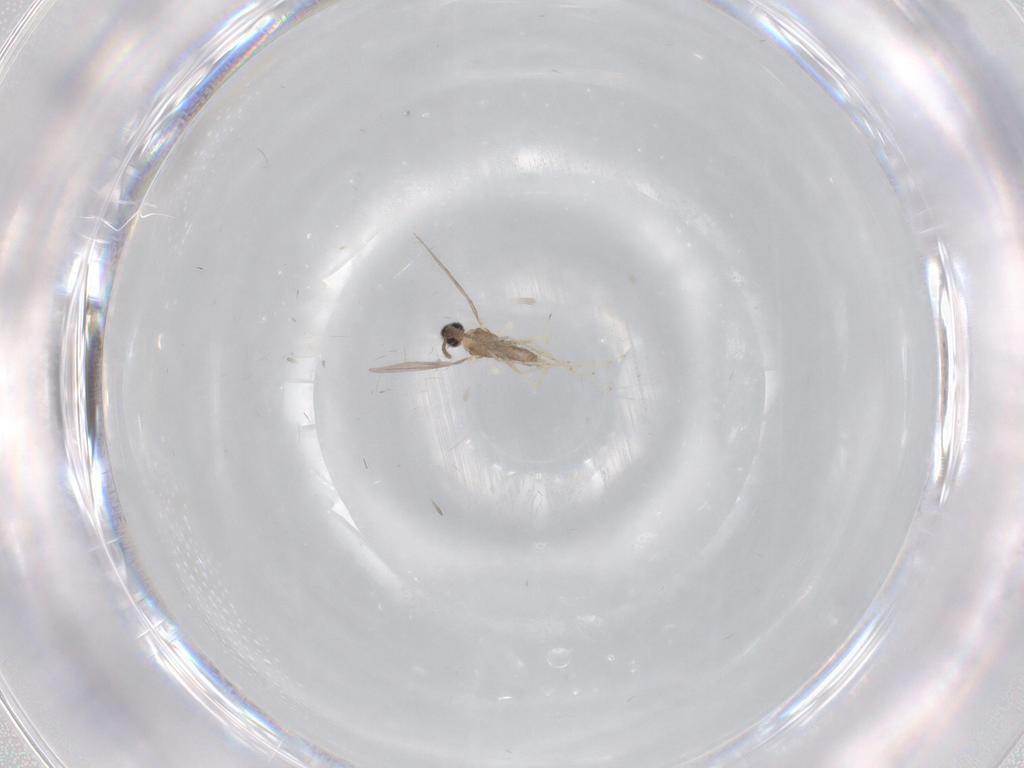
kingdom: Animalia
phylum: Arthropoda
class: Insecta
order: Diptera
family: Cecidomyiidae
